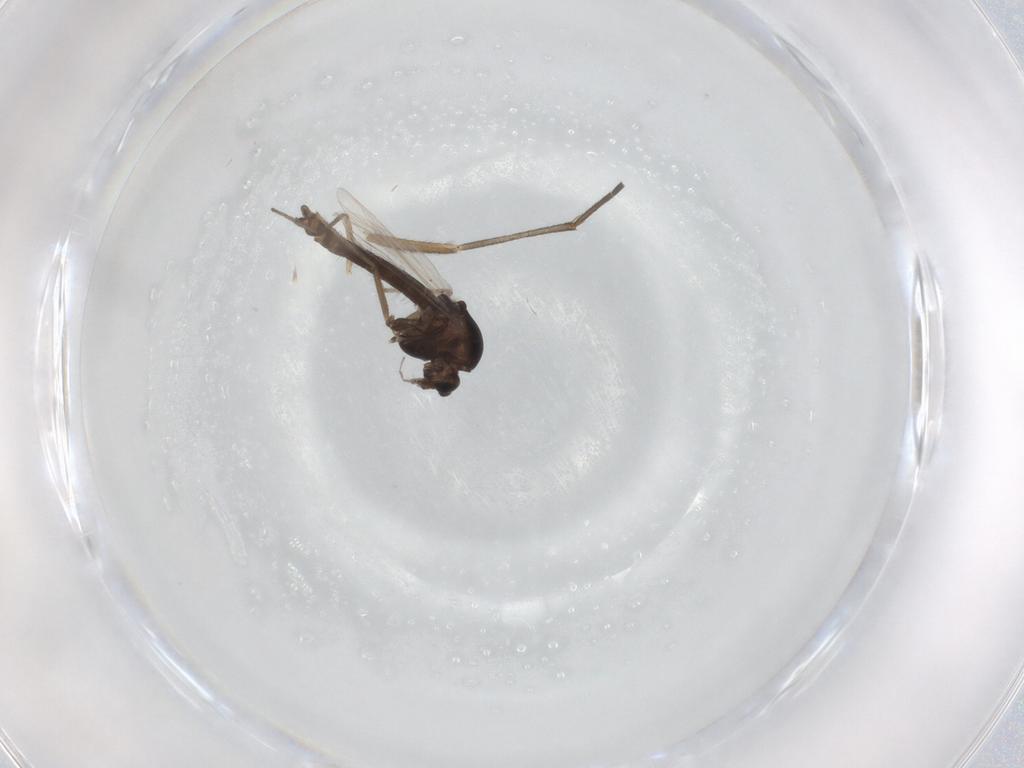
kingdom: Animalia
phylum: Arthropoda
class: Insecta
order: Diptera
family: Chironomidae
